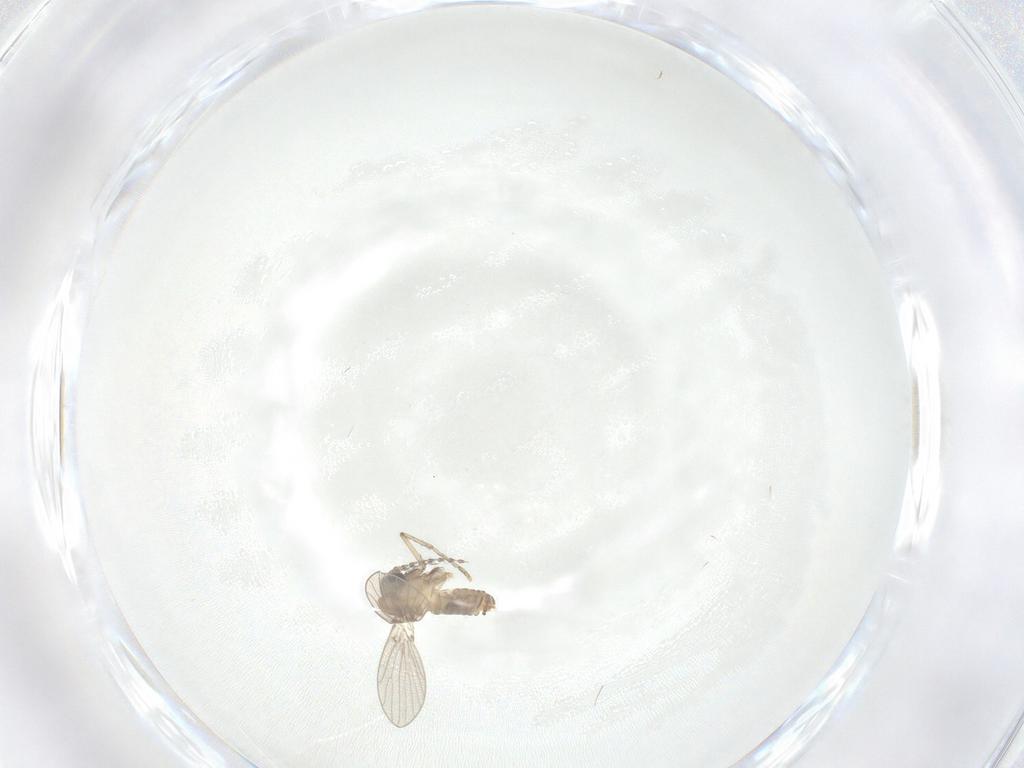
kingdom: Animalia
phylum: Arthropoda
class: Insecta
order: Diptera
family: Psychodidae
